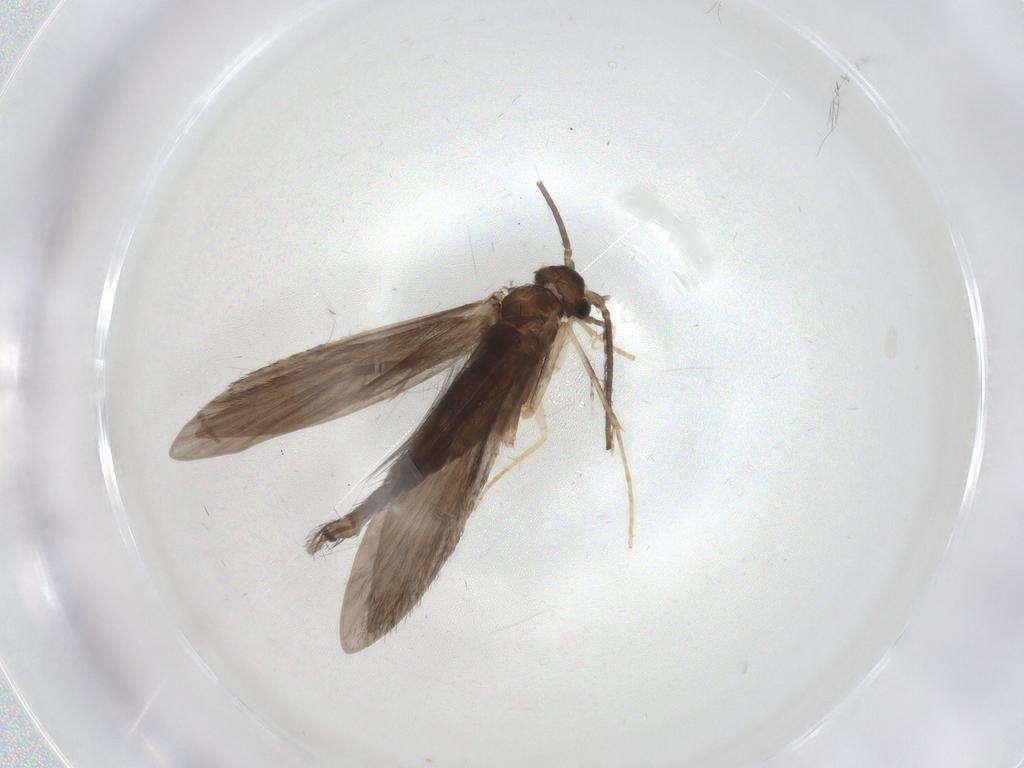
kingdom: Animalia
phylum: Arthropoda
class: Insecta
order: Trichoptera
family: Xiphocentronidae
